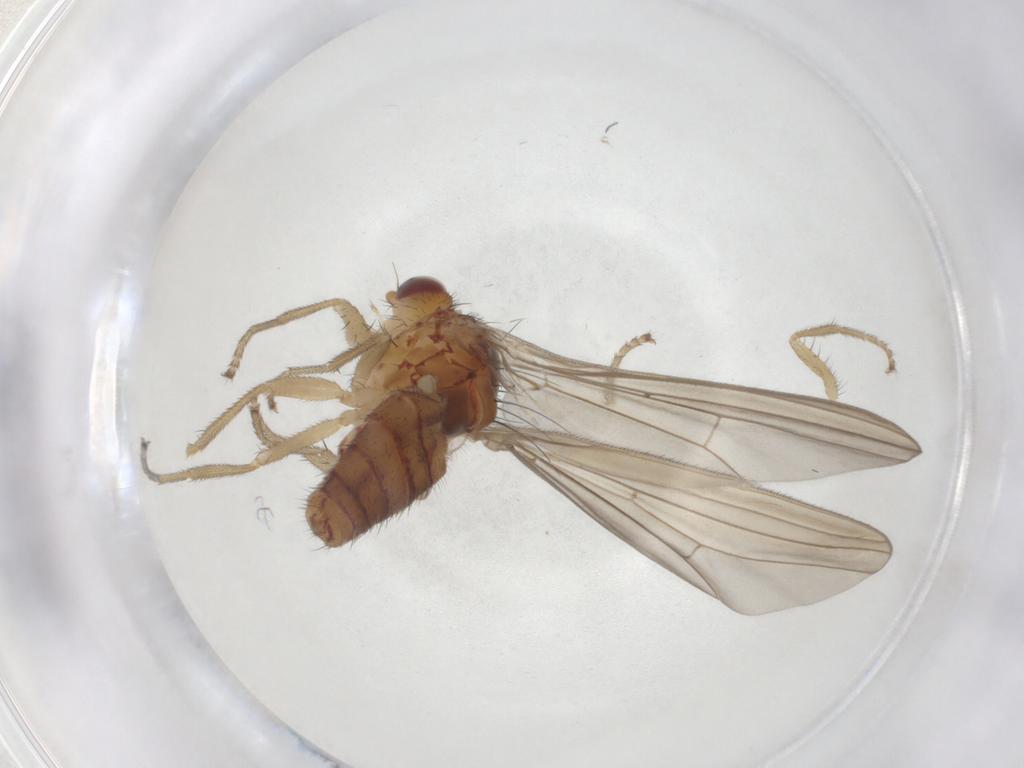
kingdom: Animalia
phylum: Arthropoda
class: Insecta
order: Diptera
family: Natalimyzidae
